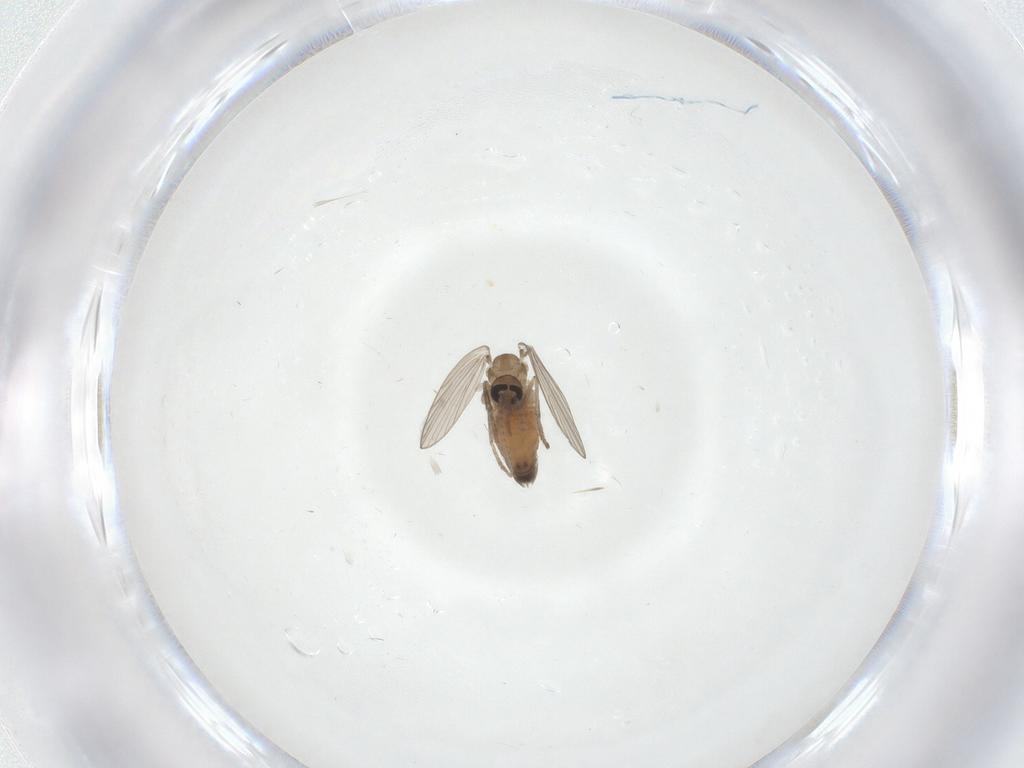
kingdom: Animalia
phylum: Arthropoda
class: Insecta
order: Diptera
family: Psychodidae
